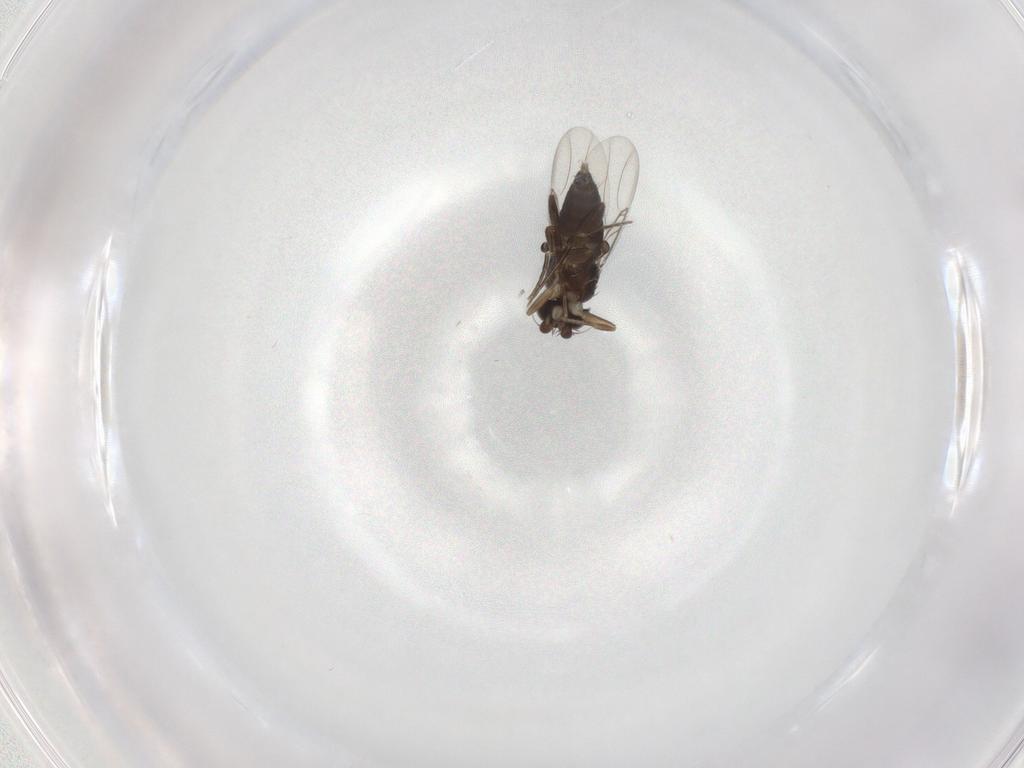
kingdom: Animalia
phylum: Arthropoda
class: Insecta
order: Diptera
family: Phoridae
